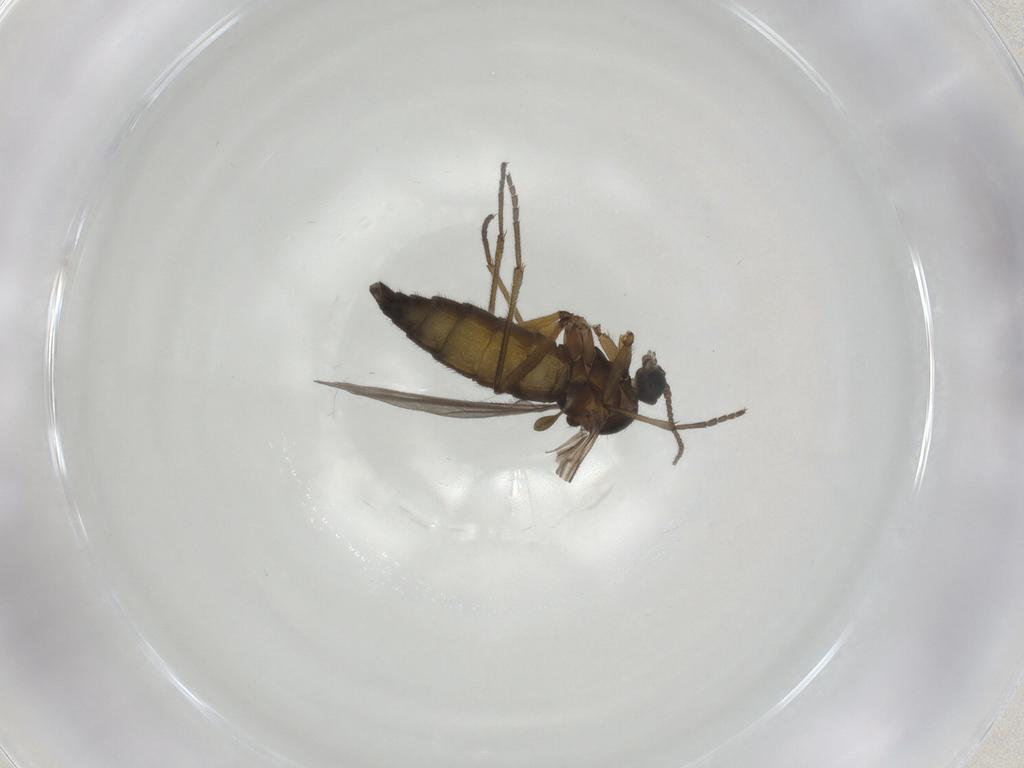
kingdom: Animalia
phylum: Arthropoda
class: Insecta
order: Diptera
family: Sciaridae
